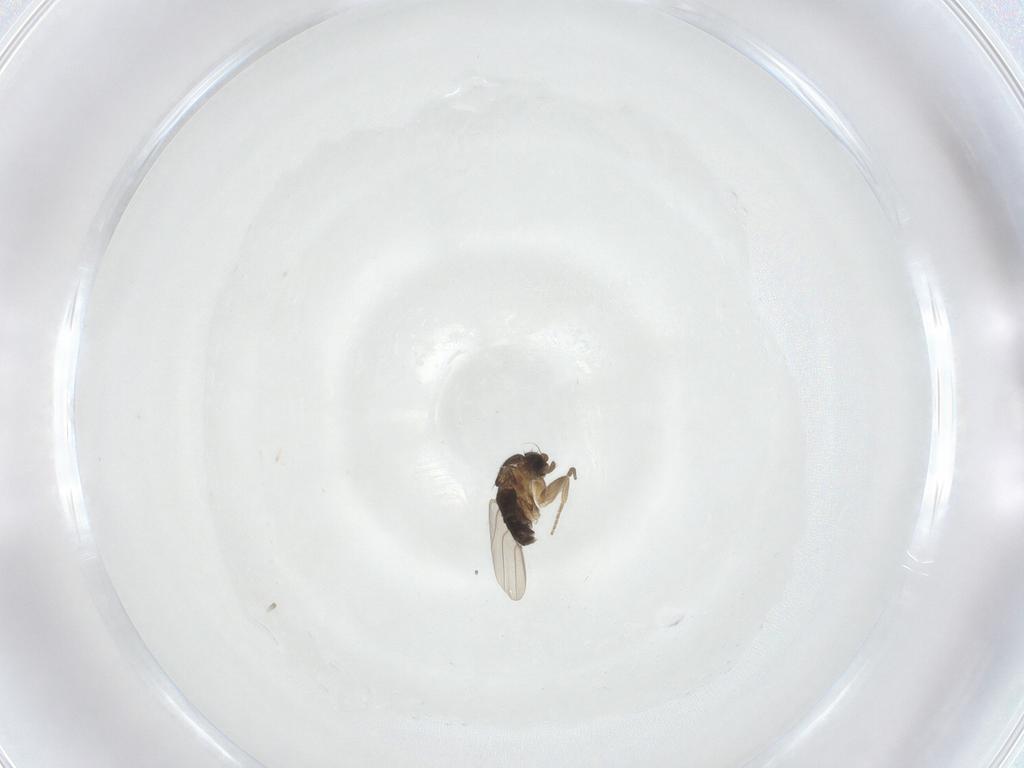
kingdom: Animalia
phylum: Arthropoda
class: Insecta
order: Diptera
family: Phoridae
